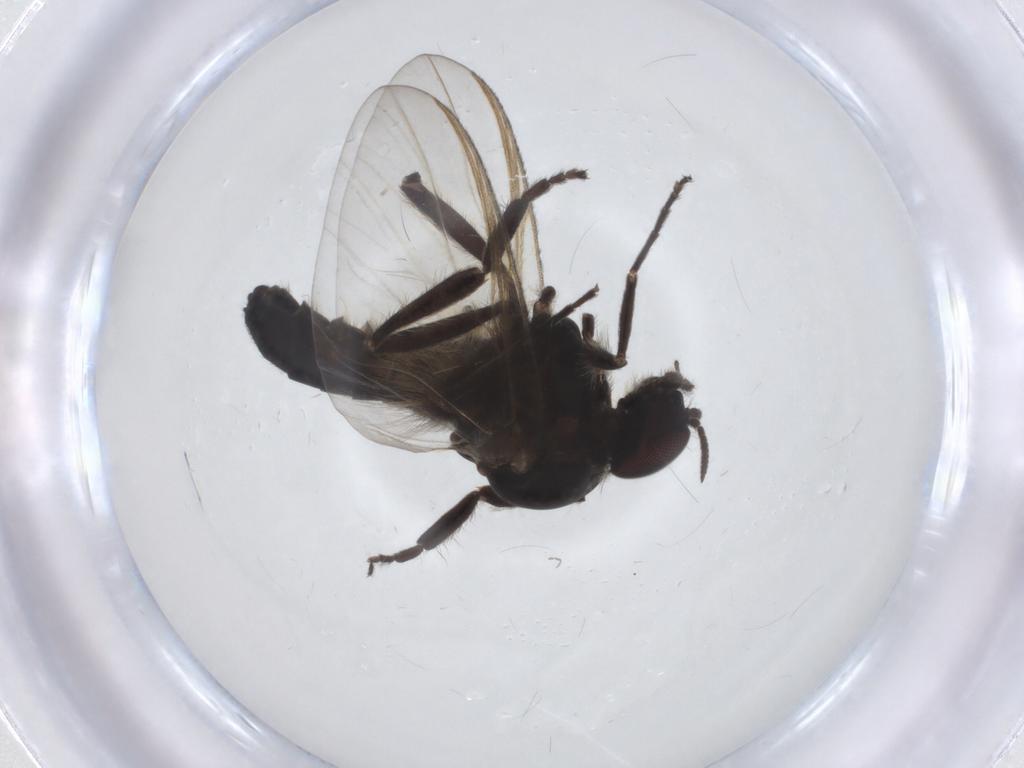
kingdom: Animalia
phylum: Arthropoda
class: Insecta
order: Diptera
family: Simuliidae
